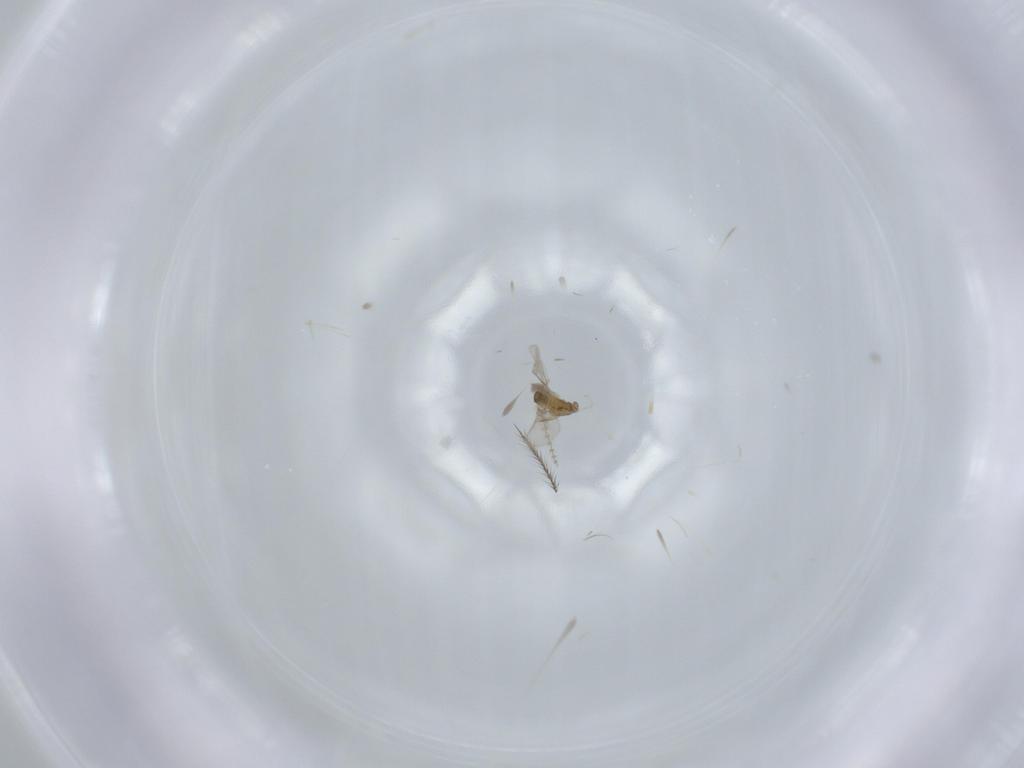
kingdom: Animalia
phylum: Arthropoda
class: Insecta
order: Diptera
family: Cecidomyiidae
